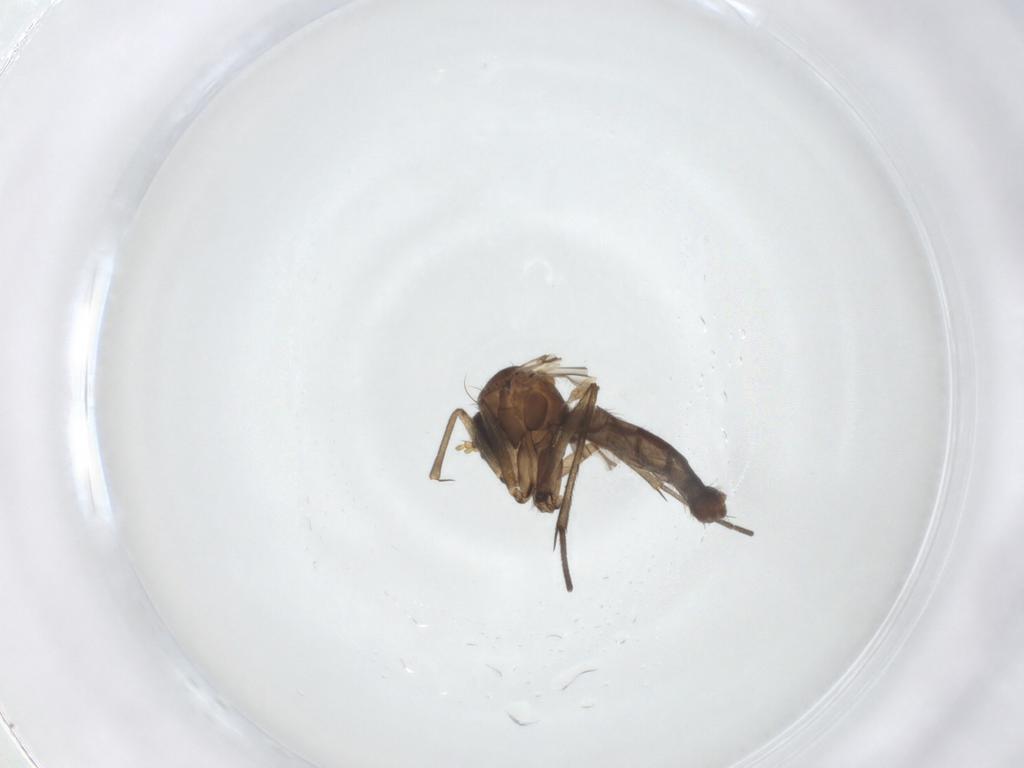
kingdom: Animalia
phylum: Arthropoda
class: Insecta
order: Diptera
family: Mycetophilidae
